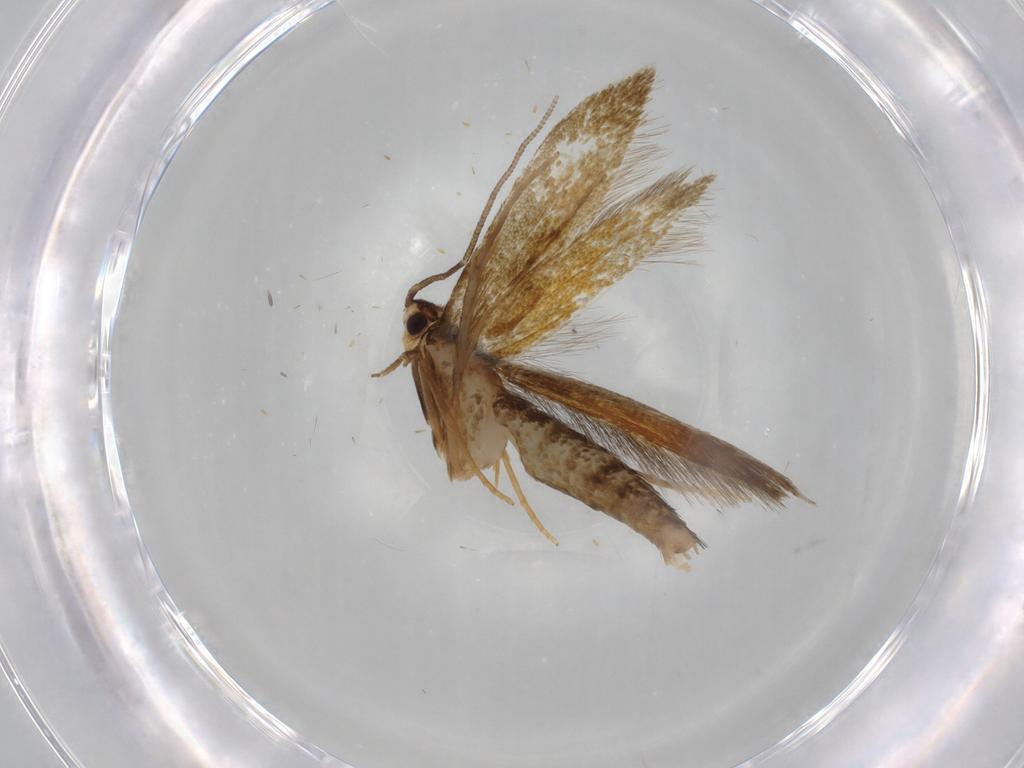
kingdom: Animalia
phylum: Arthropoda
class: Insecta
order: Lepidoptera
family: Tineidae
